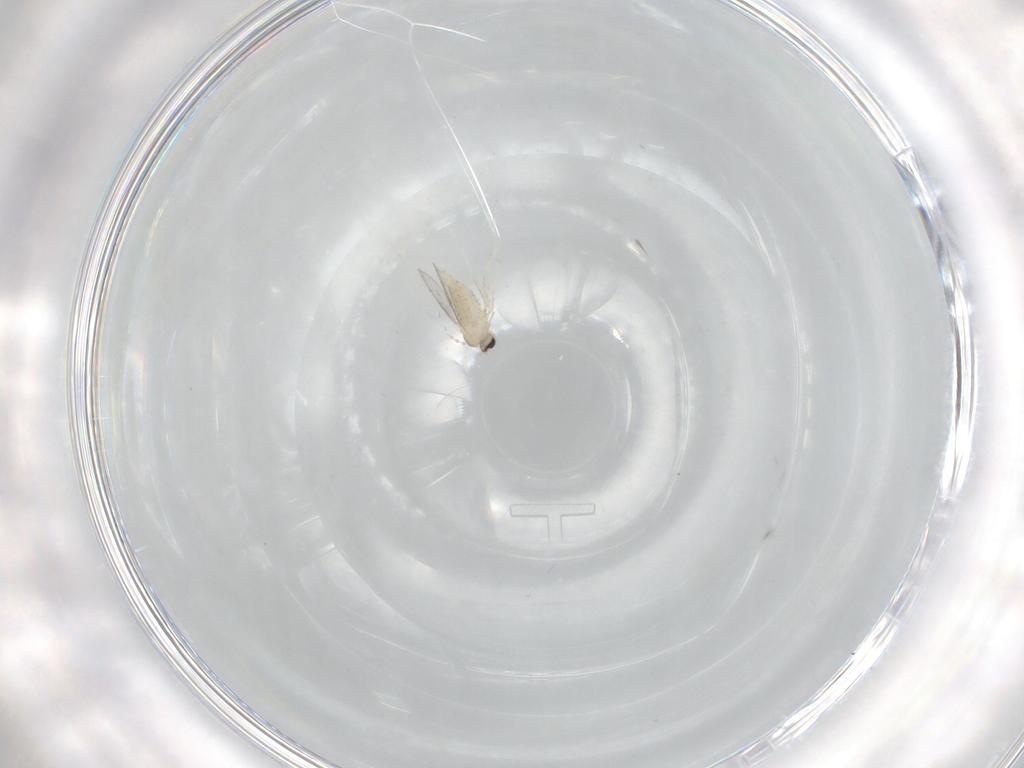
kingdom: Animalia
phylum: Arthropoda
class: Insecta
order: Diptera
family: Cecidomyiidae
